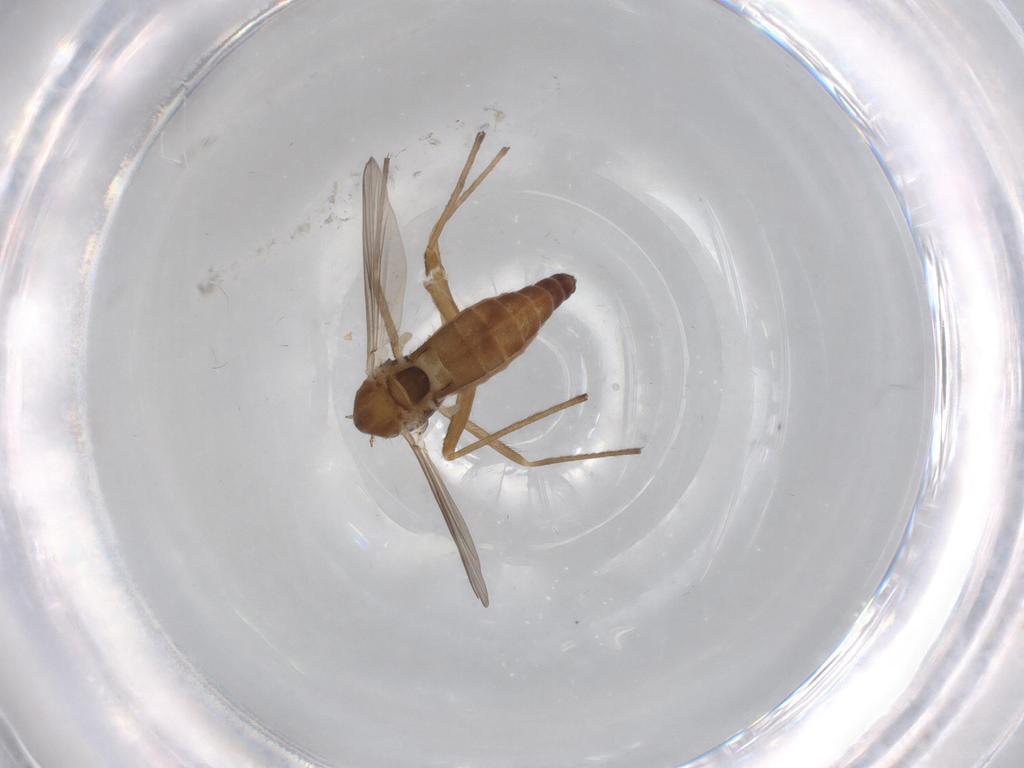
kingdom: Animalia
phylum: Arthropoda
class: Insecta
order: Diptera
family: Chironomidae
